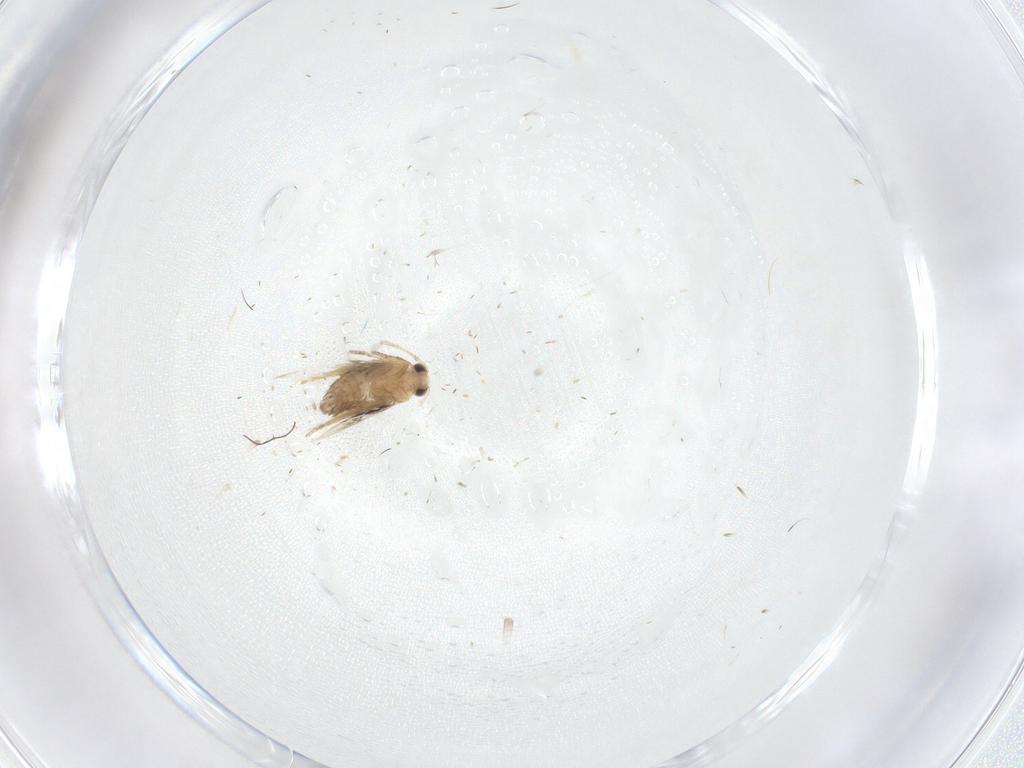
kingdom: Animalia
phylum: Arthropoda
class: Insecta
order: Lepidoptera
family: Nepticulidae
